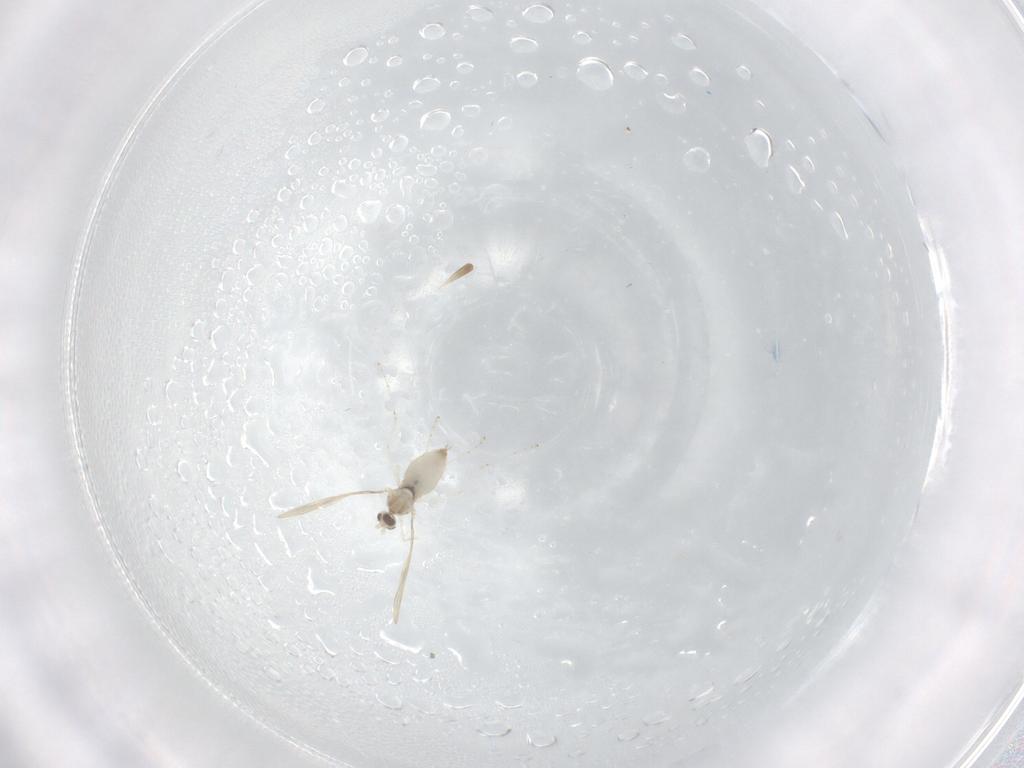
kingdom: Animalia
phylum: Arthropoda
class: Insecta
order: Diptera
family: Cecidomyiidae
